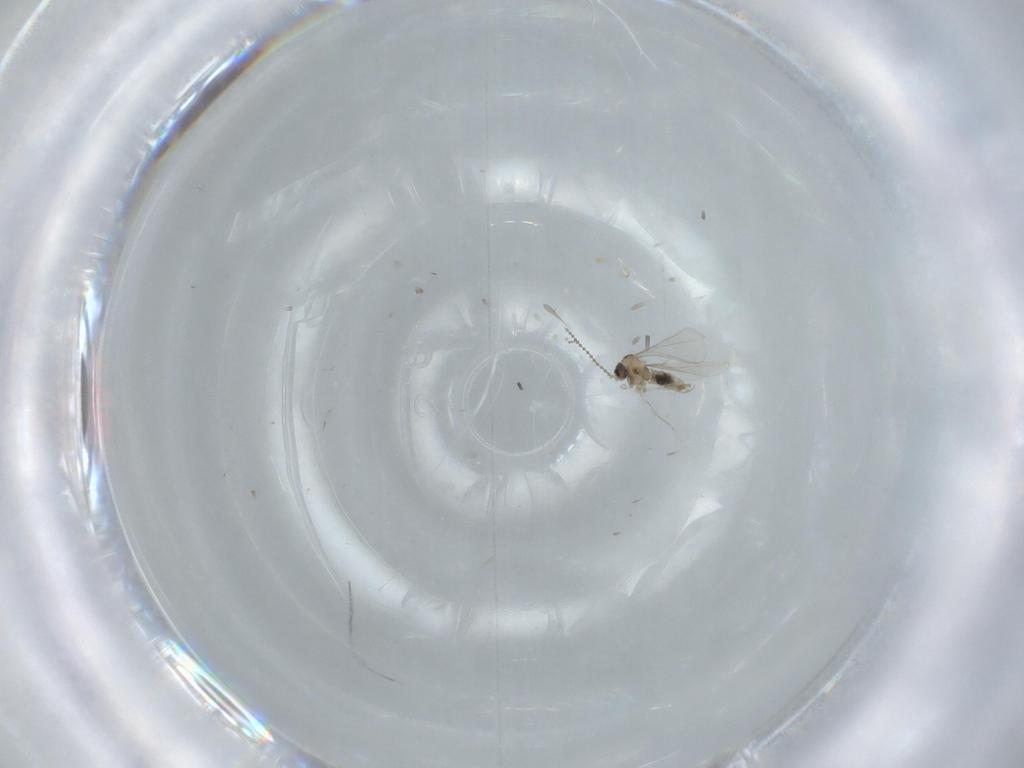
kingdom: Animalia
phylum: Arthropoda
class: Insecta
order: Diptera
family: Cecidomyiidae
